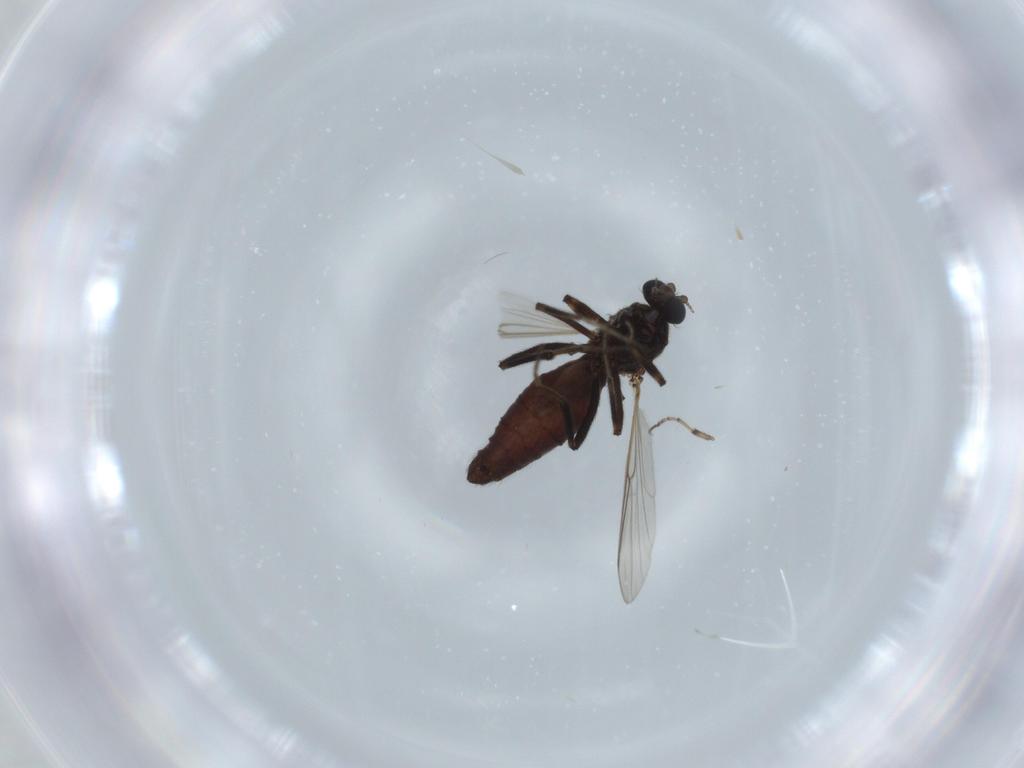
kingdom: Animalia
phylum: Arthropoda
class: Insecta
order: Diptera
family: Ceratopogonidae
